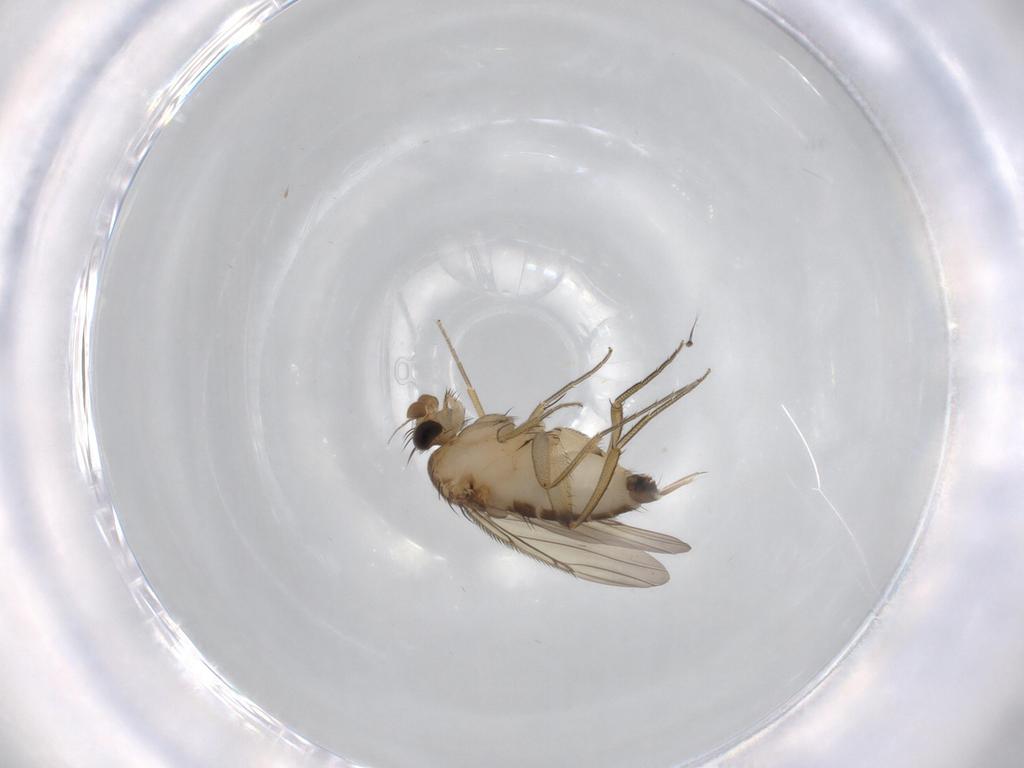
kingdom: Animalia
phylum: Arthropoda
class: Insecta
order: Diptera
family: Phoridae
